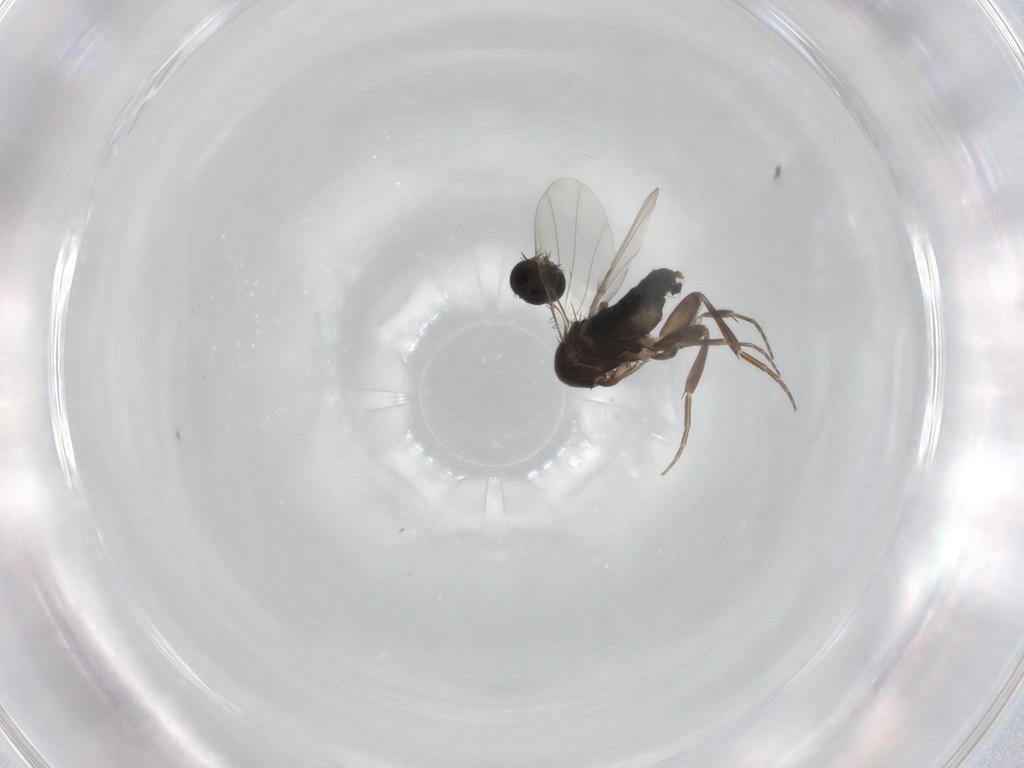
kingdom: Animalia
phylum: Arthropoda
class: Insecta
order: Diptera
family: Phoridae
